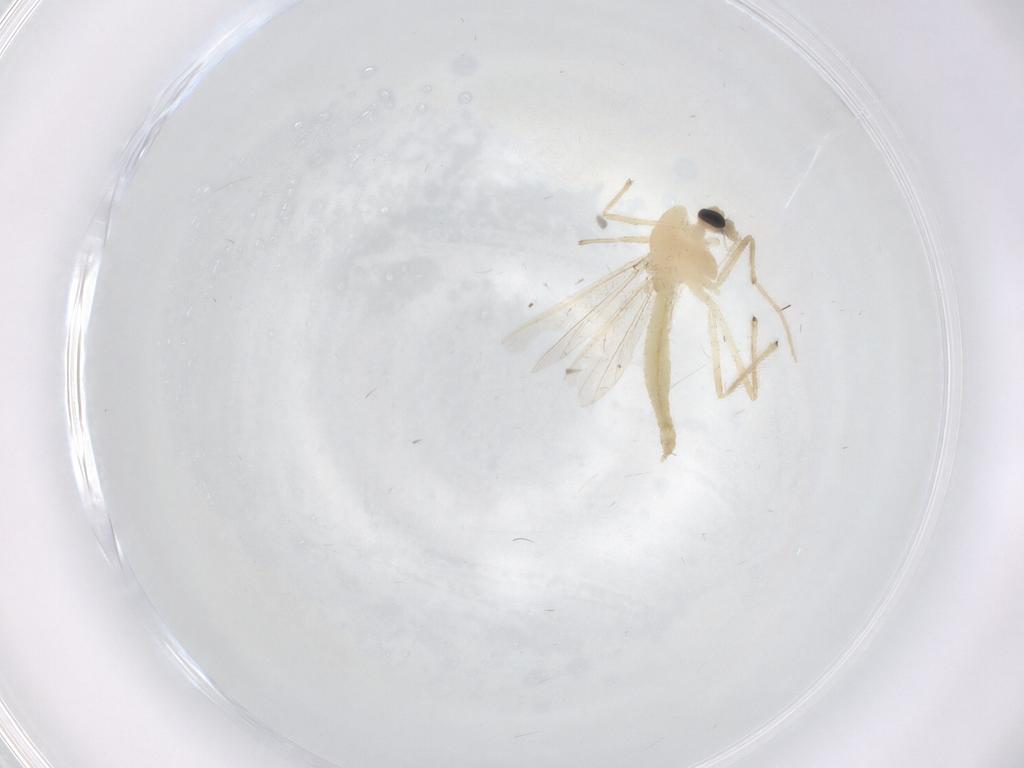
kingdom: Animalia
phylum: Arthropoda
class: Insecta
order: Diptera
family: Chironomidae
